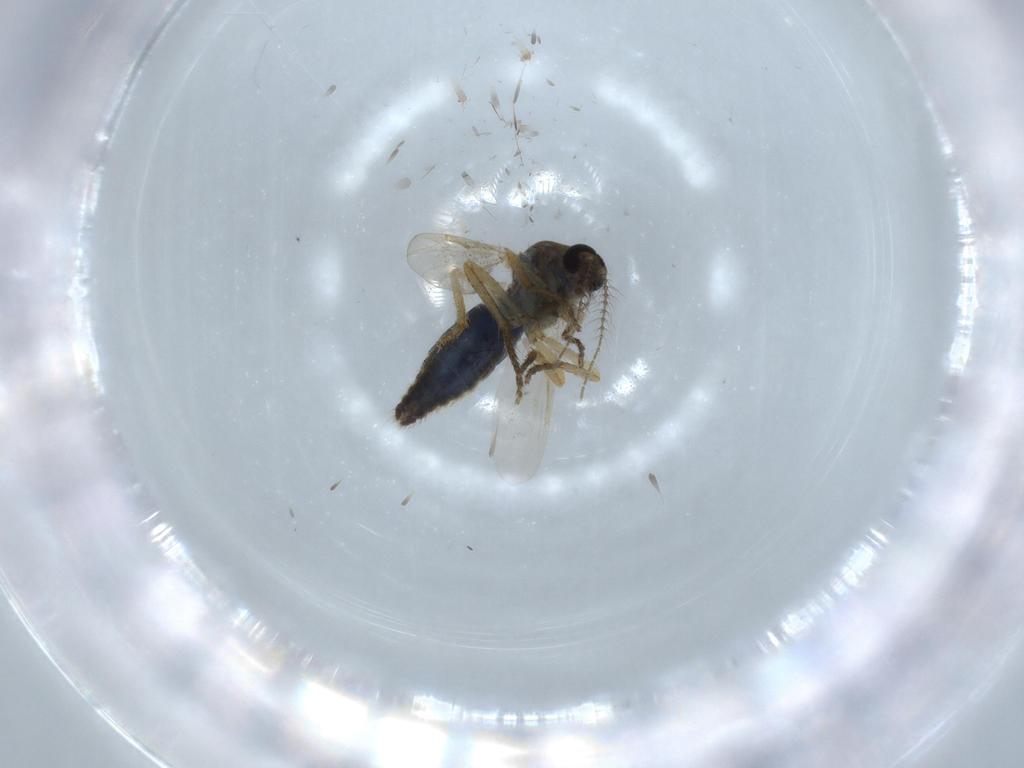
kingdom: Animalia
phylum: Arthropoda
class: Insecta
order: Diptera
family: Ceratopogonidae
